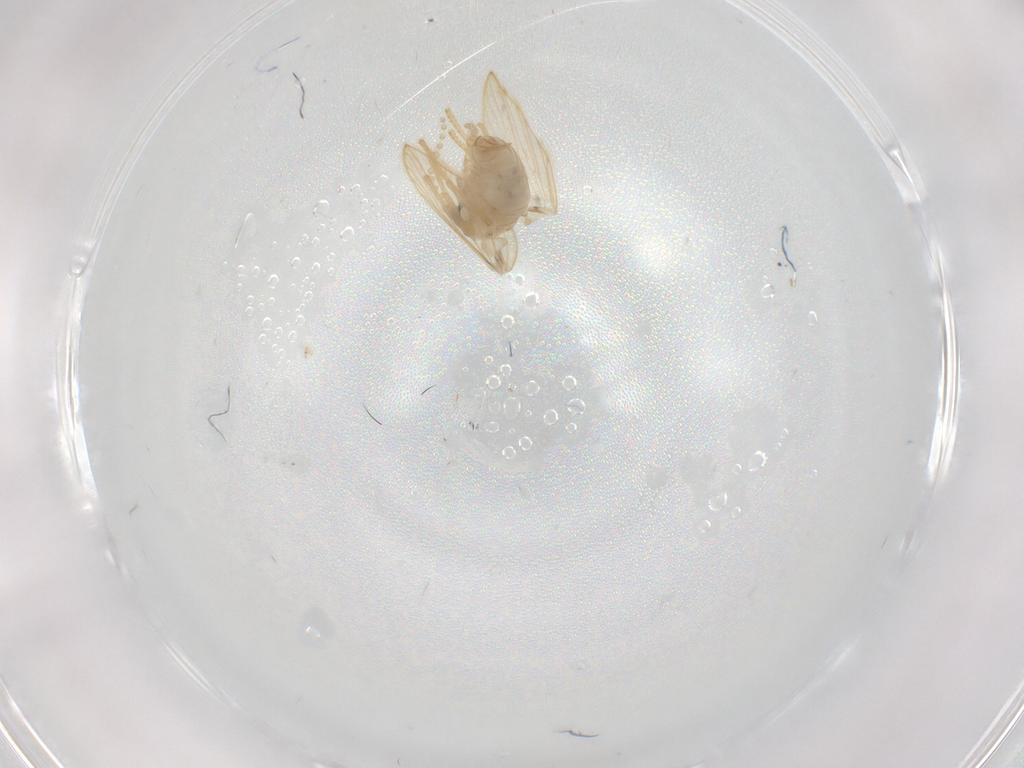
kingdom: Animalia
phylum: Arthropoda
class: Insecta
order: Diptera
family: Psychodidae
